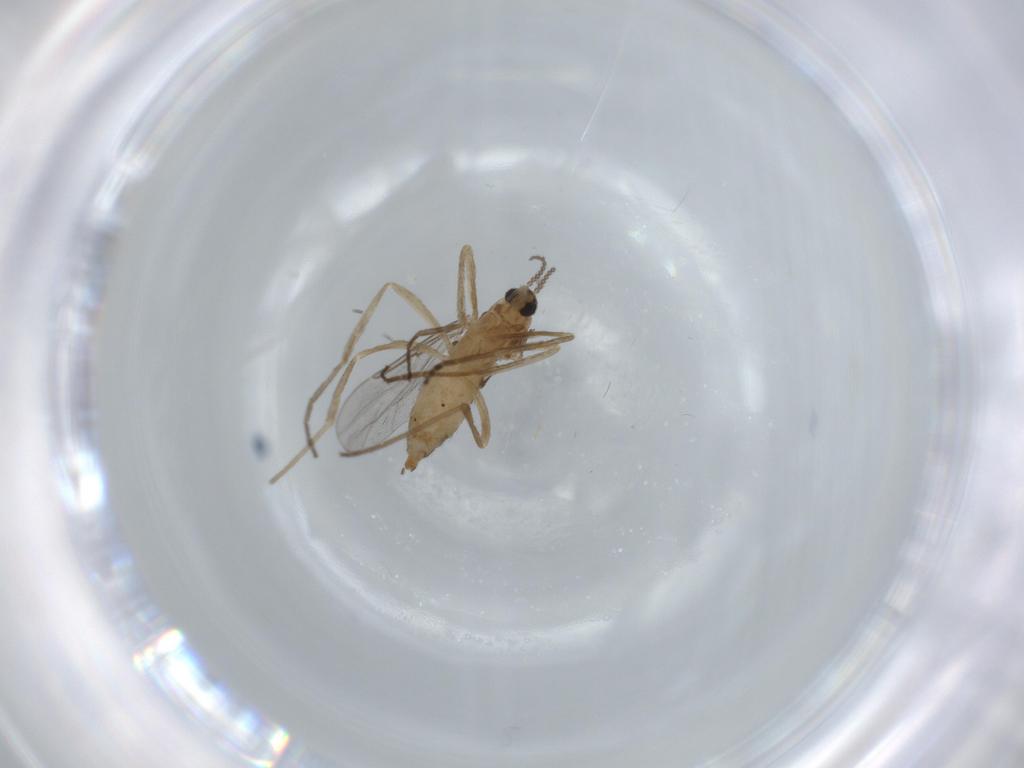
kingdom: Animalia
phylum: Arthropoda
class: Insecta
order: Diptera
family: Cecidomyiidae
